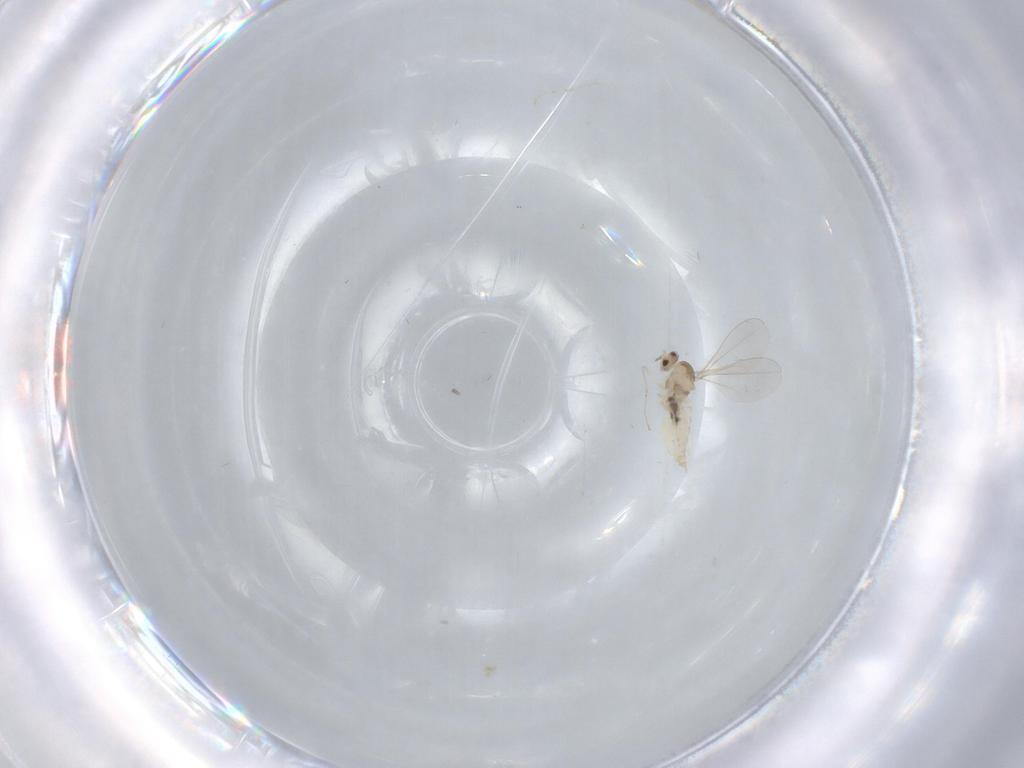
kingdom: Animalia
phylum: Arthropoda
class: Insecta
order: Diptera
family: Cecidomyiidae
